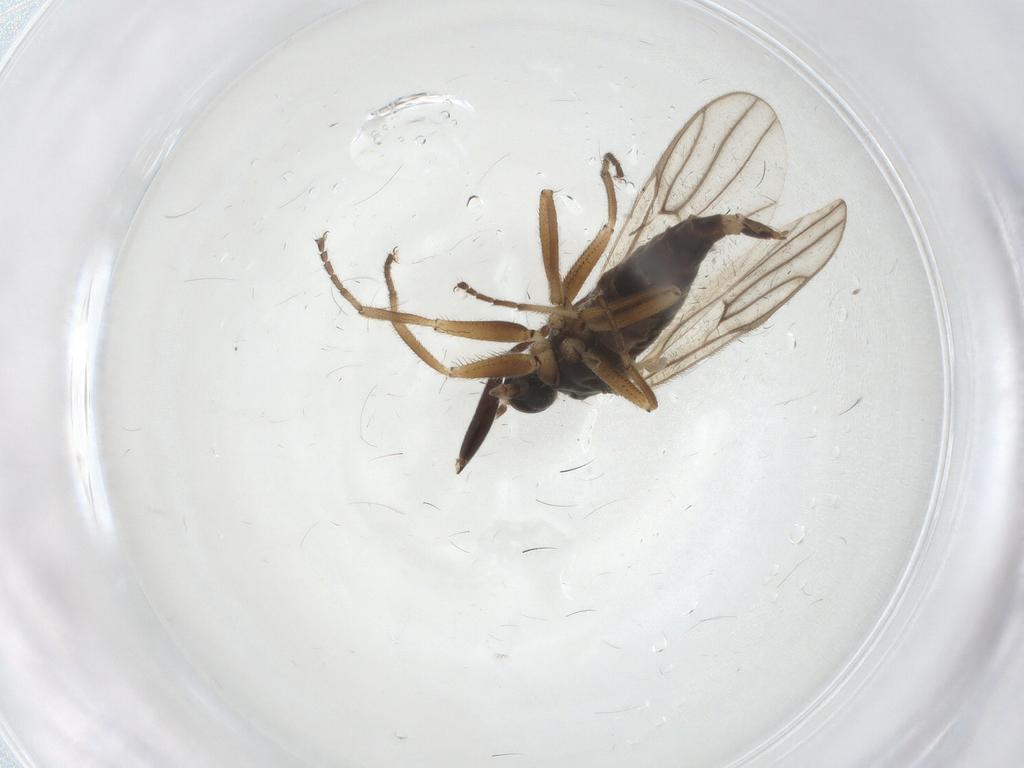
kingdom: Animalia
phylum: Arthropoda
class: Insecta
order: Diptera
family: Hybotidae
